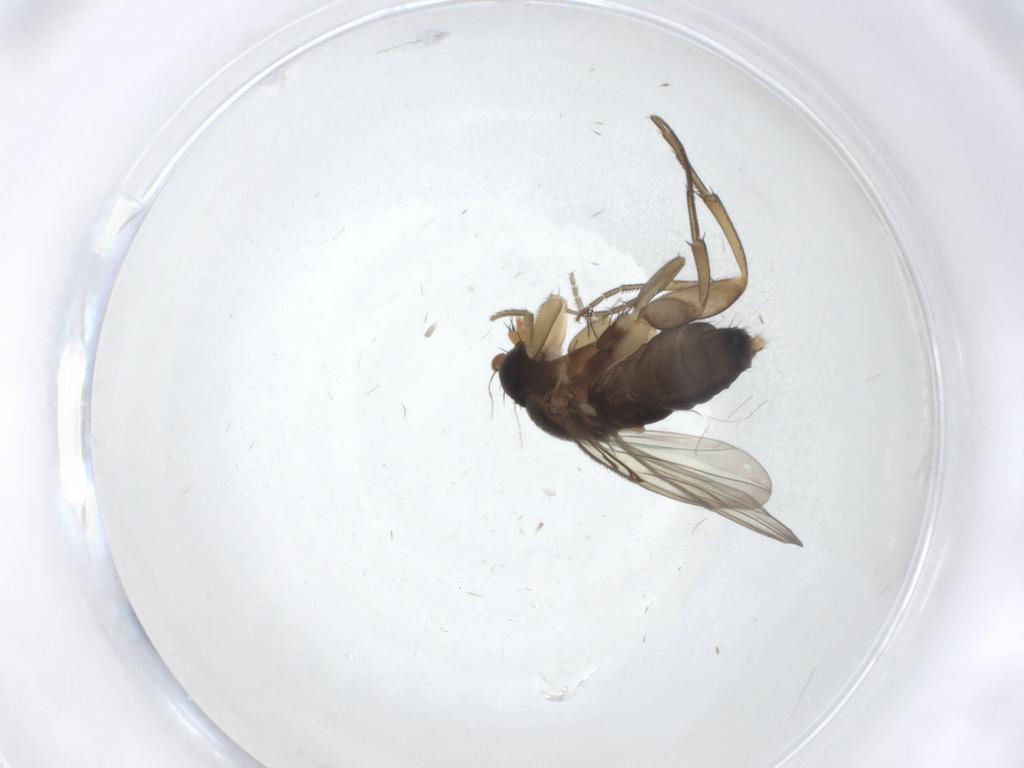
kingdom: Animalia
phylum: Arthropoda
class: Insecta
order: Diptera
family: Phoridae
